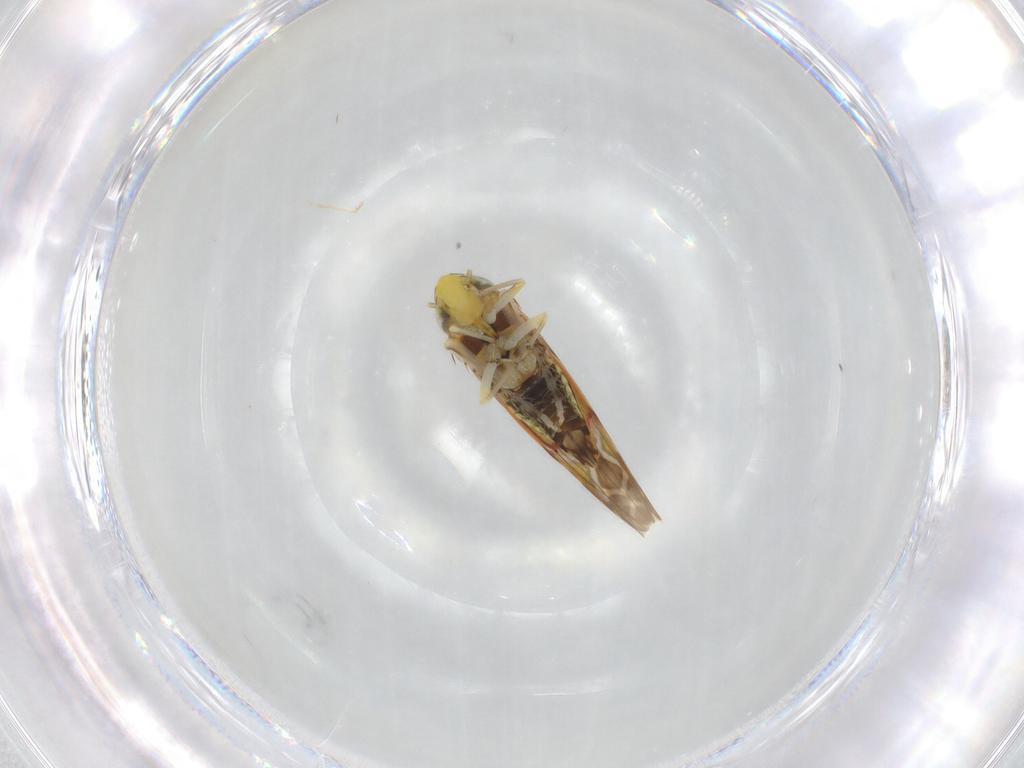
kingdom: Animalia
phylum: Arthropoda
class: Insecta
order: Hemiptera
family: Cicadellidae
